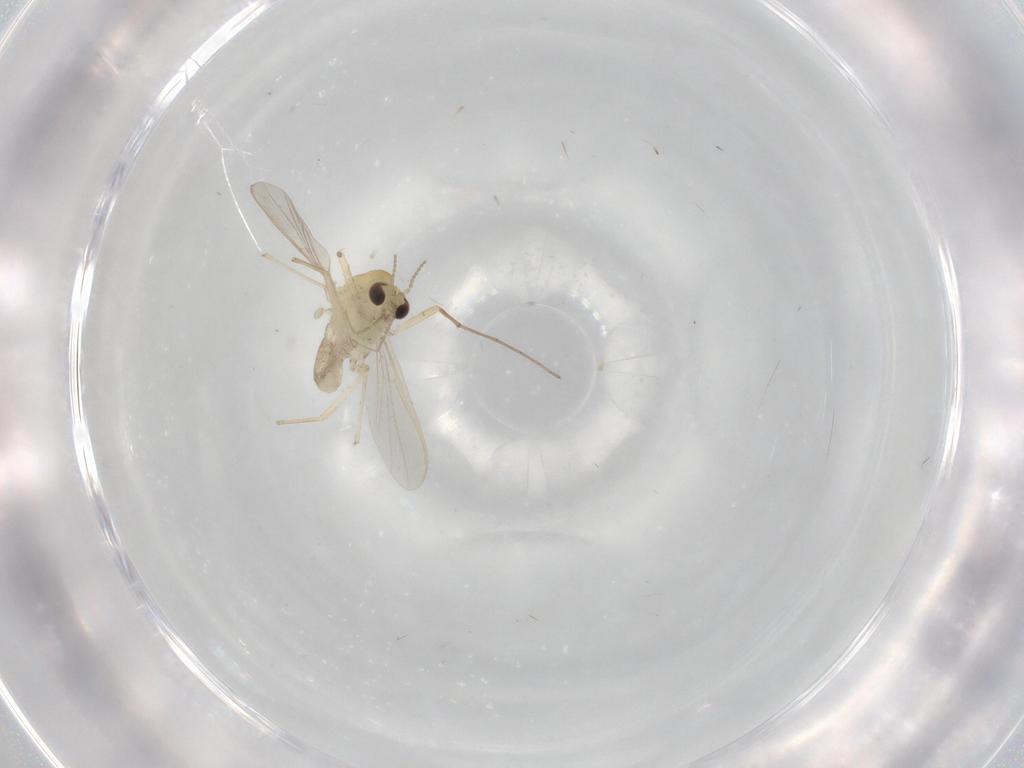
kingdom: Animalia
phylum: Arthropoda
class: Insecta
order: Diptera
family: Chironomidae
